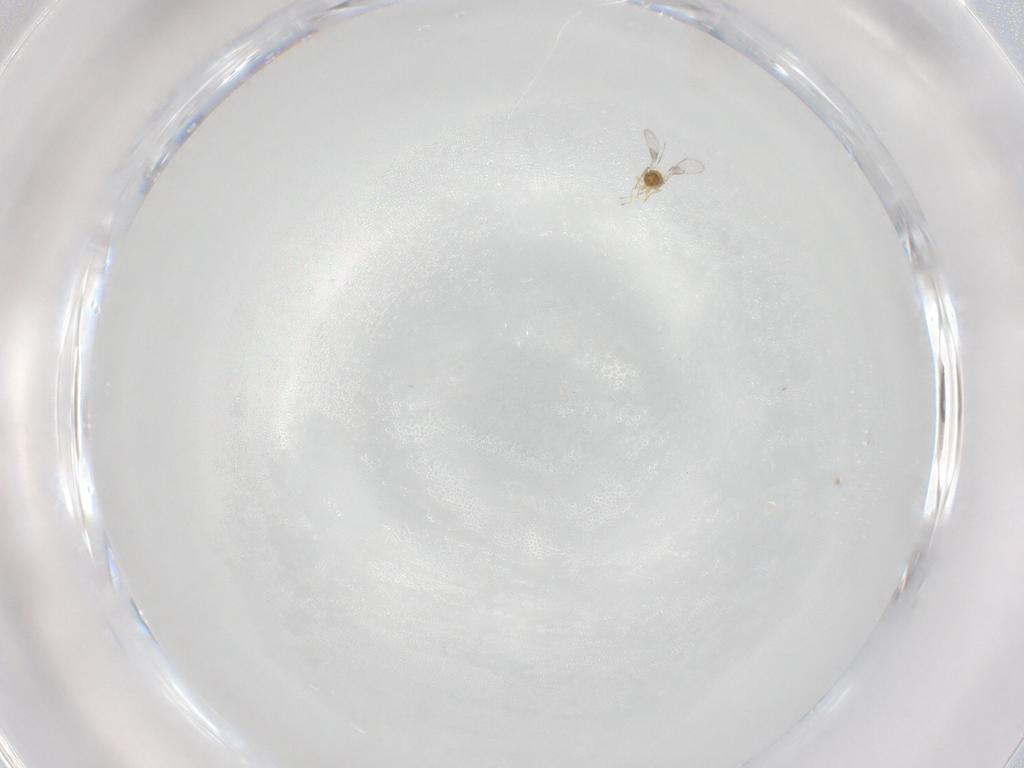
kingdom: Animalia
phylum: Arthropoda
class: Insecta
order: Hymenoptera
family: Trichogrammatidae
